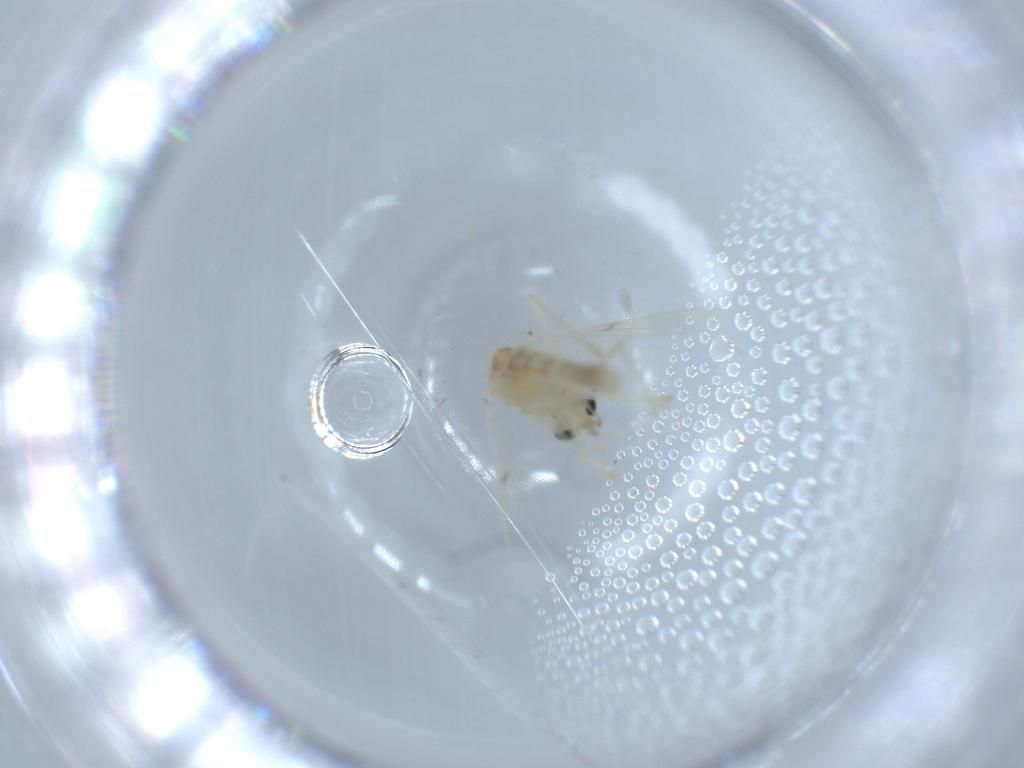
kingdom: Animalia
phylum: Arthropoda
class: Insecta
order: Diptera
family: Chironomidae
